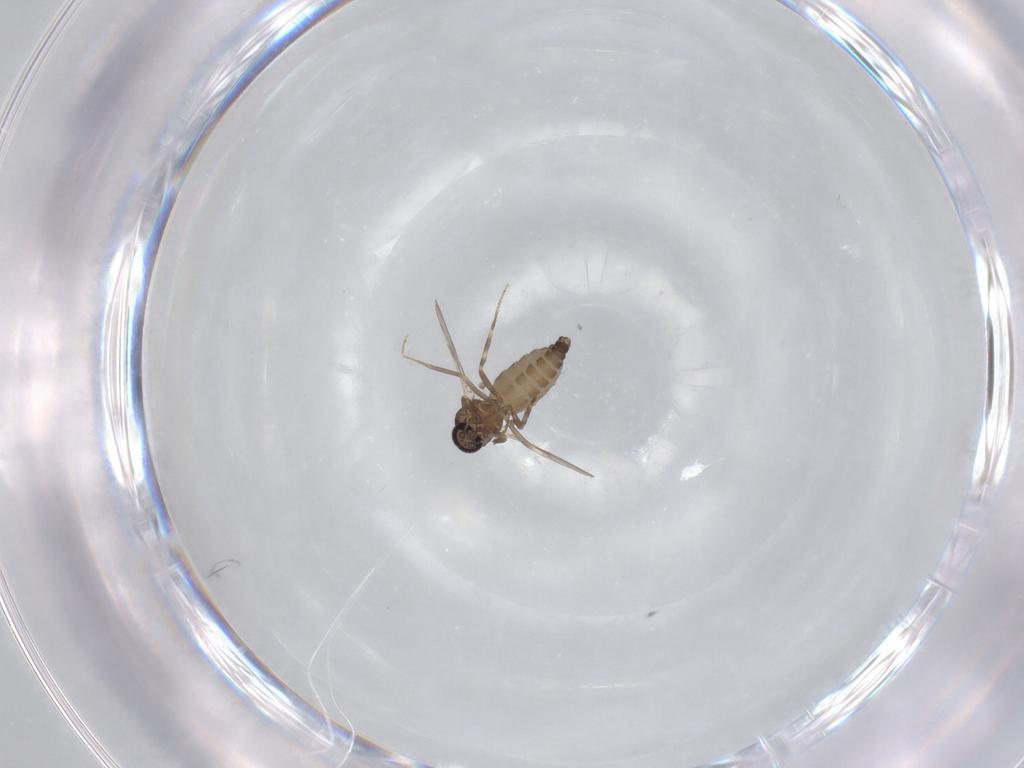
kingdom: Animalia
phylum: Arthropoda
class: Insecta
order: Diptera
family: Ceratopogonidae
